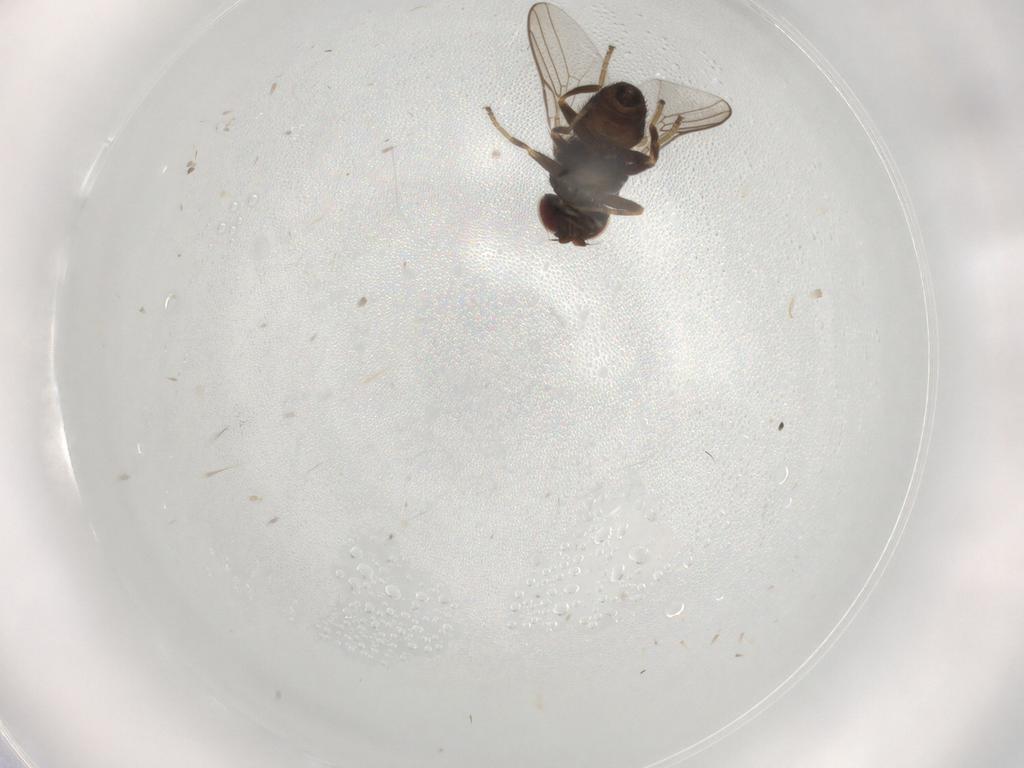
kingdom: Animalia
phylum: Arthropoda
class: Insecta
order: Diptera
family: Chloropidae
